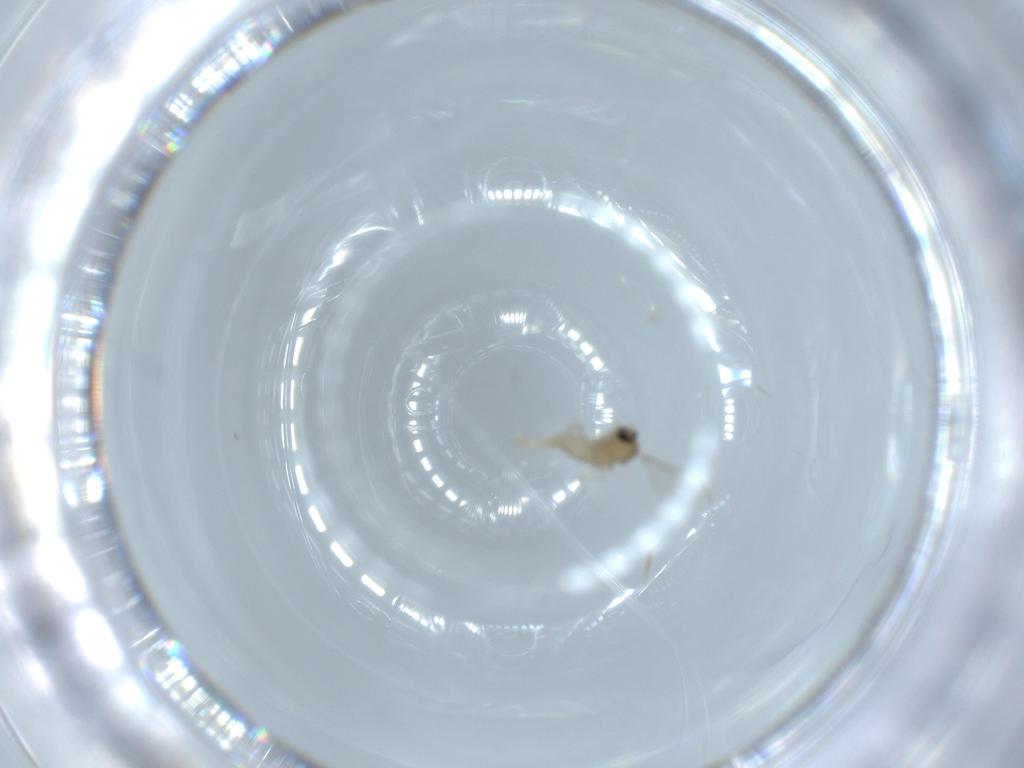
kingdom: Animalia
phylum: Arthropoda
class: Insecta
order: Diptera
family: Cecidomyiidae
